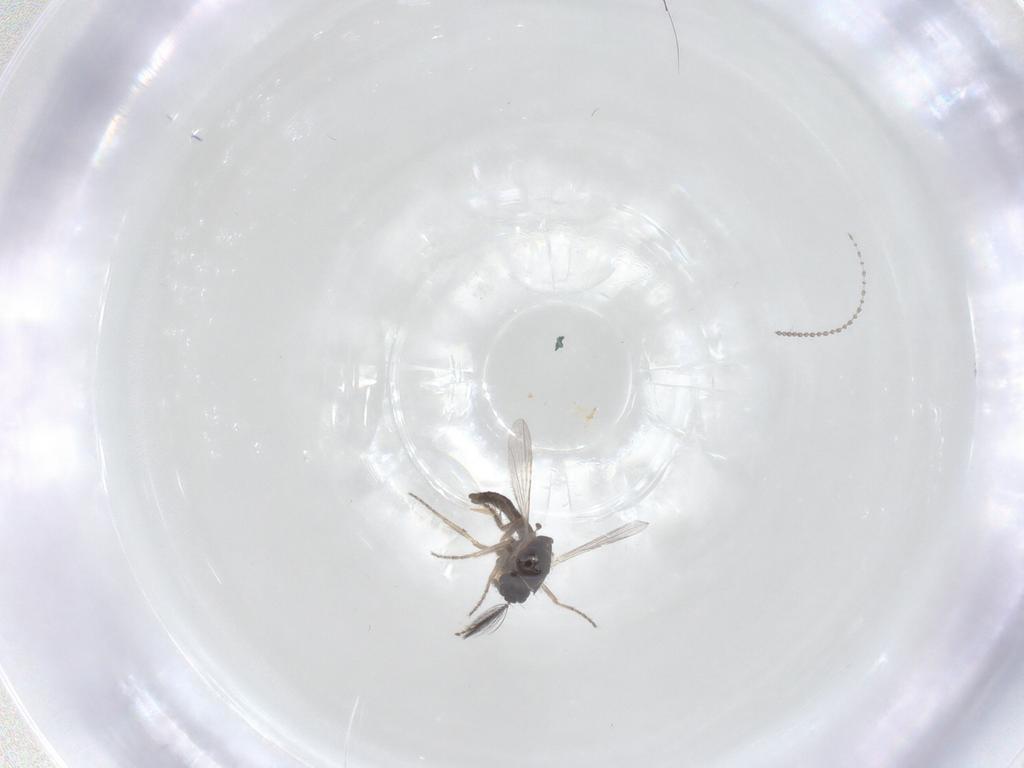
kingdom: Animalia
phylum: Arthropoda
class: Insecta
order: Diptera
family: Ceratopogonidae
